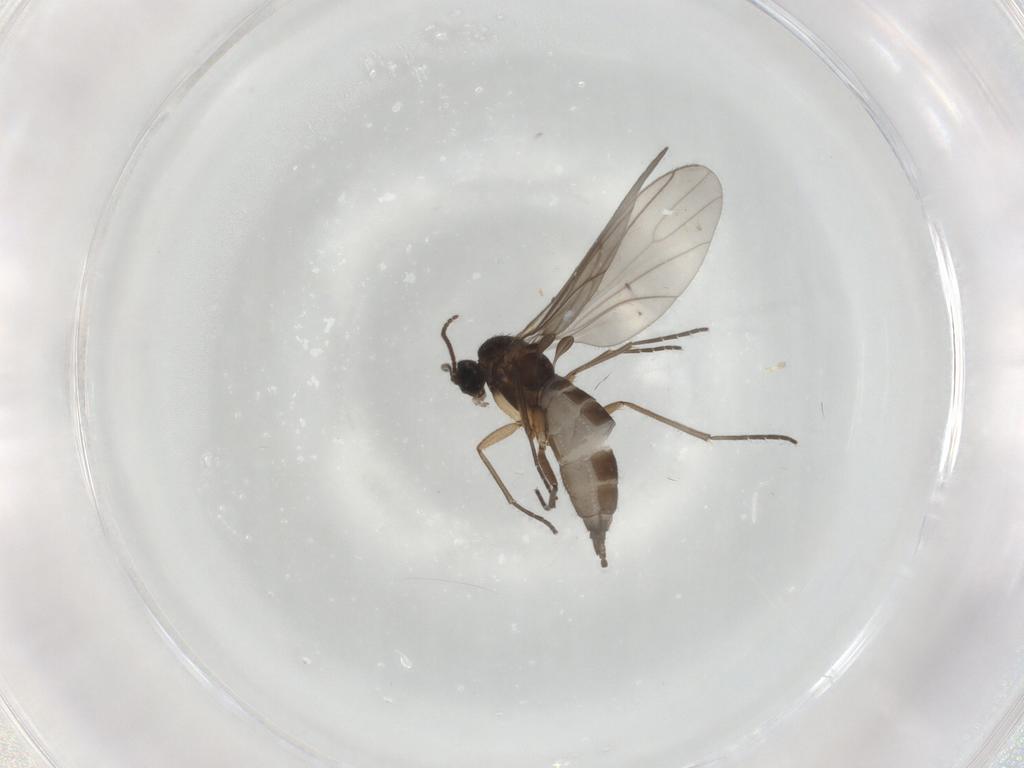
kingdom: Animalia
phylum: Arthropoda
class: Insecta
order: Diptera
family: Sciaridae
